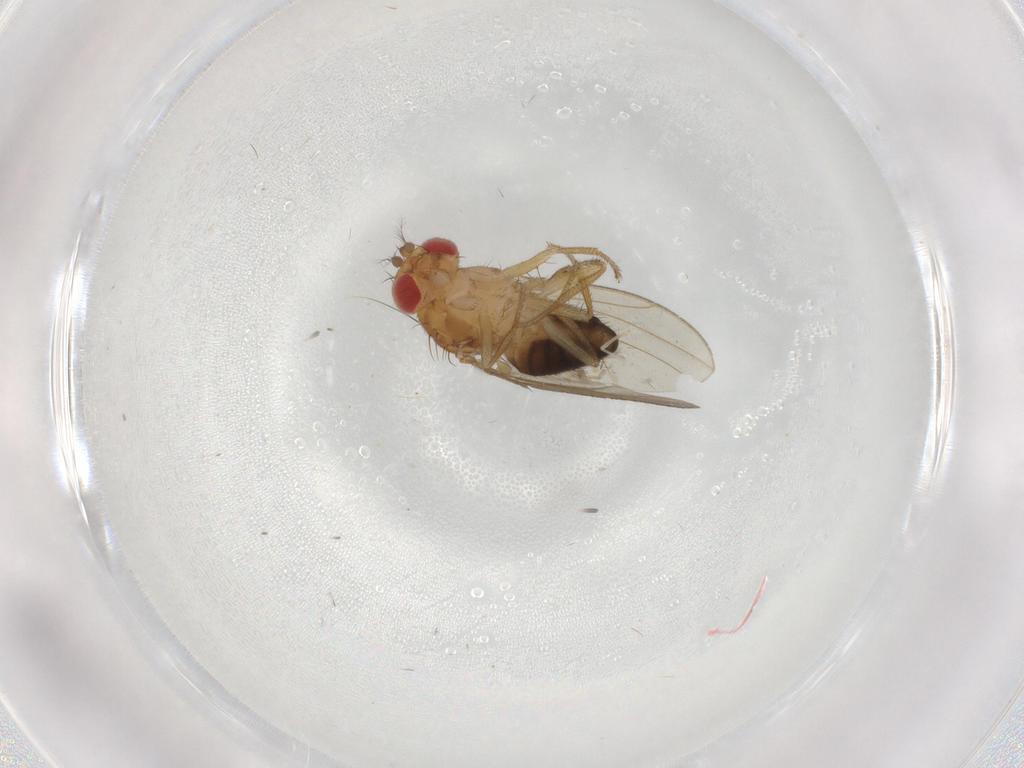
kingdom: Animalia
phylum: Arthropoda
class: Insecta
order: Diptera
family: Drosophilidae
